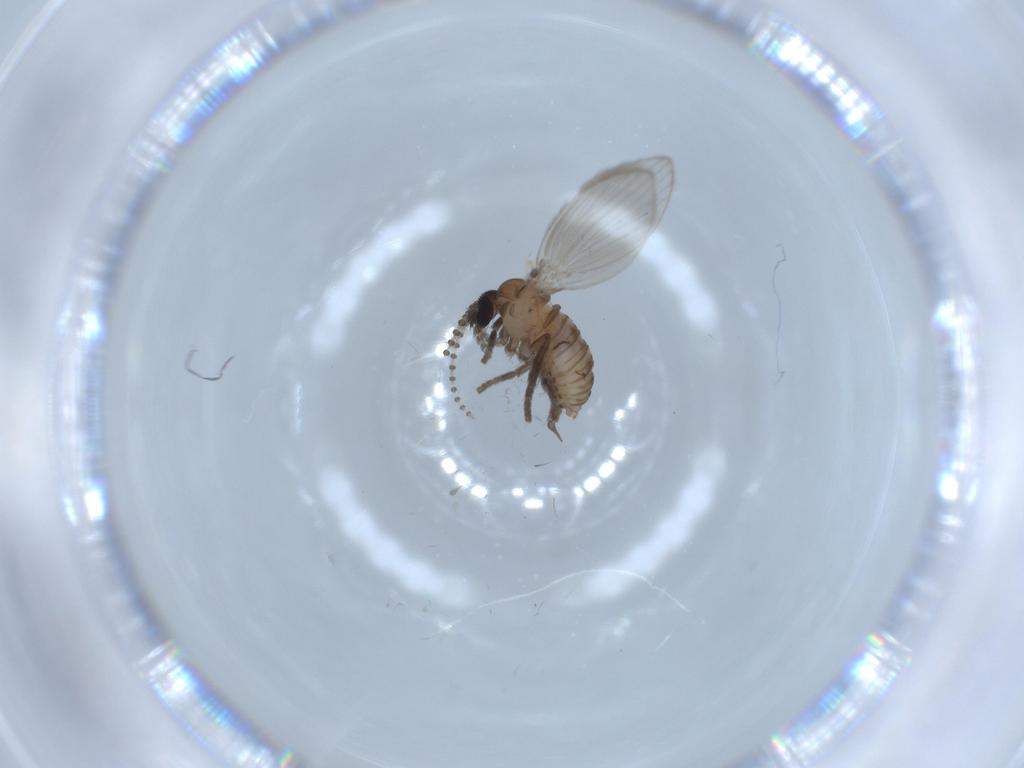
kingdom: Animalia
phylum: Arthropoda
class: Insecta
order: Diptera
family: Psychodidae
